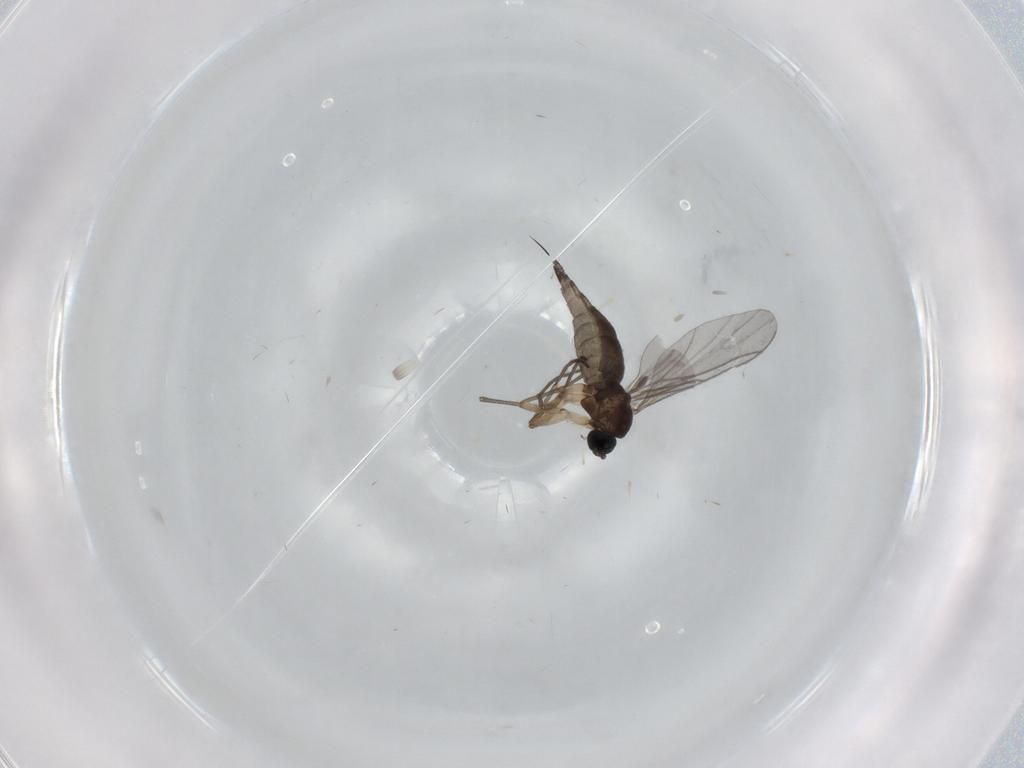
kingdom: Animalia
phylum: Arthropoda
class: Insecta
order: Diptera
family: Sciaridae
